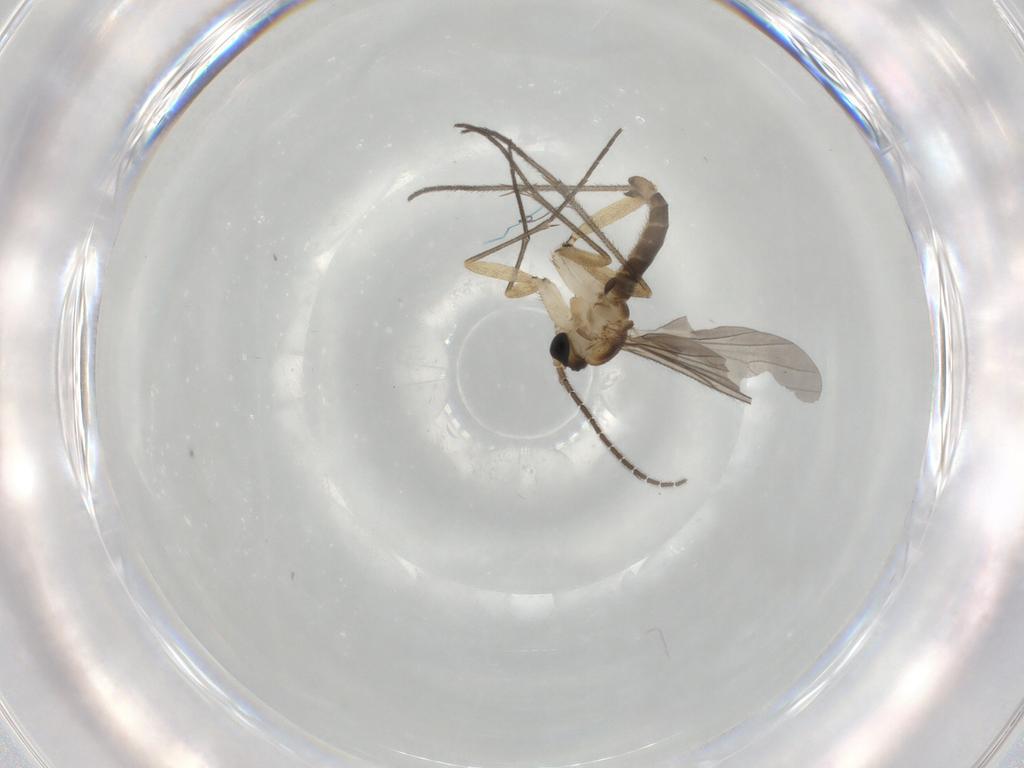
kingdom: Animalia
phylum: Arthropoda
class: Insecta
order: Diptera
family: Sciaridae
